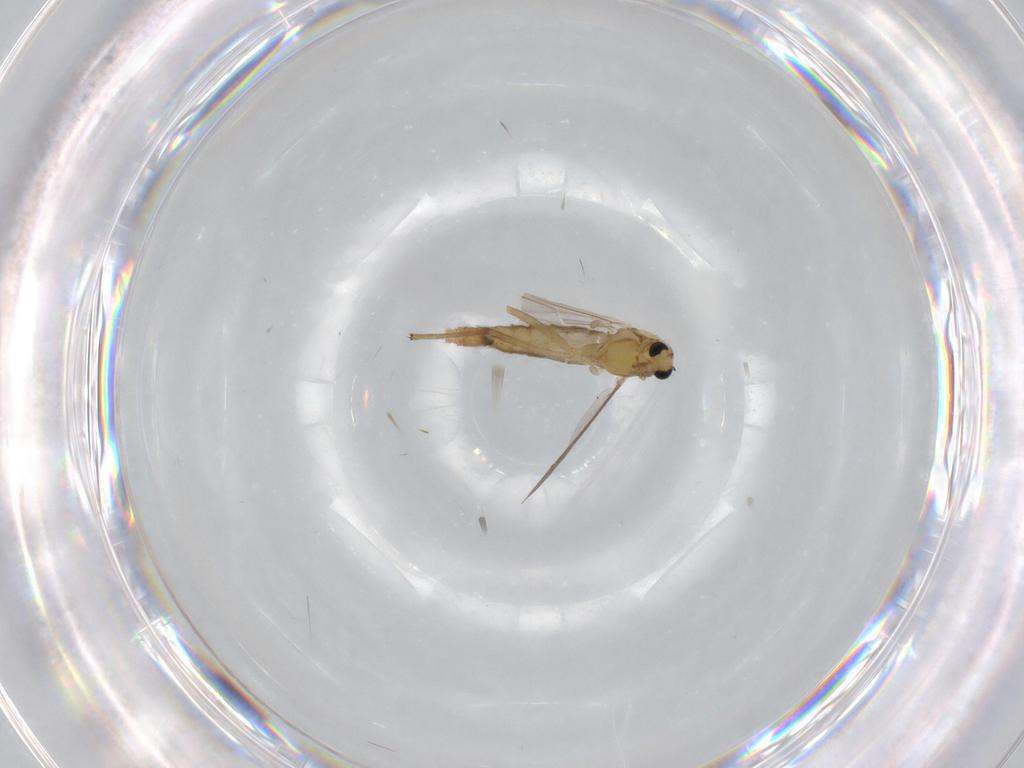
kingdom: Animalia
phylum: Arthropoda
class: Insecta
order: Diptera
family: Chironomidae
